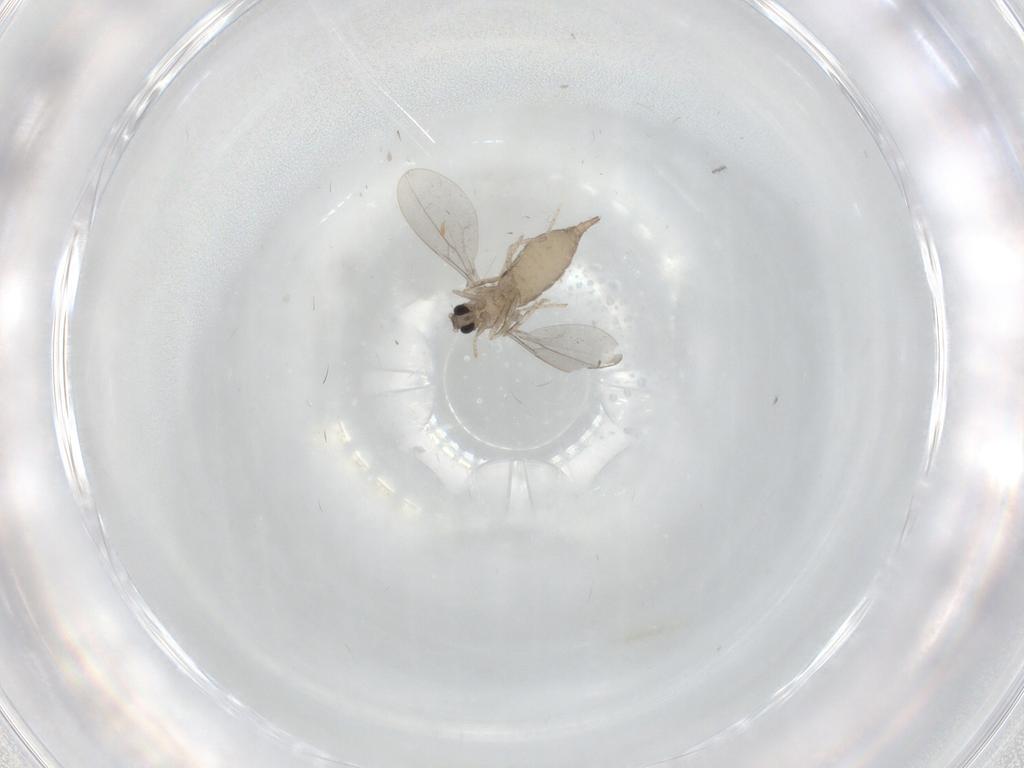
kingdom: Animalia
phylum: Arthropoda
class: Insecta
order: Diptera
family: Cecidomyiidae
